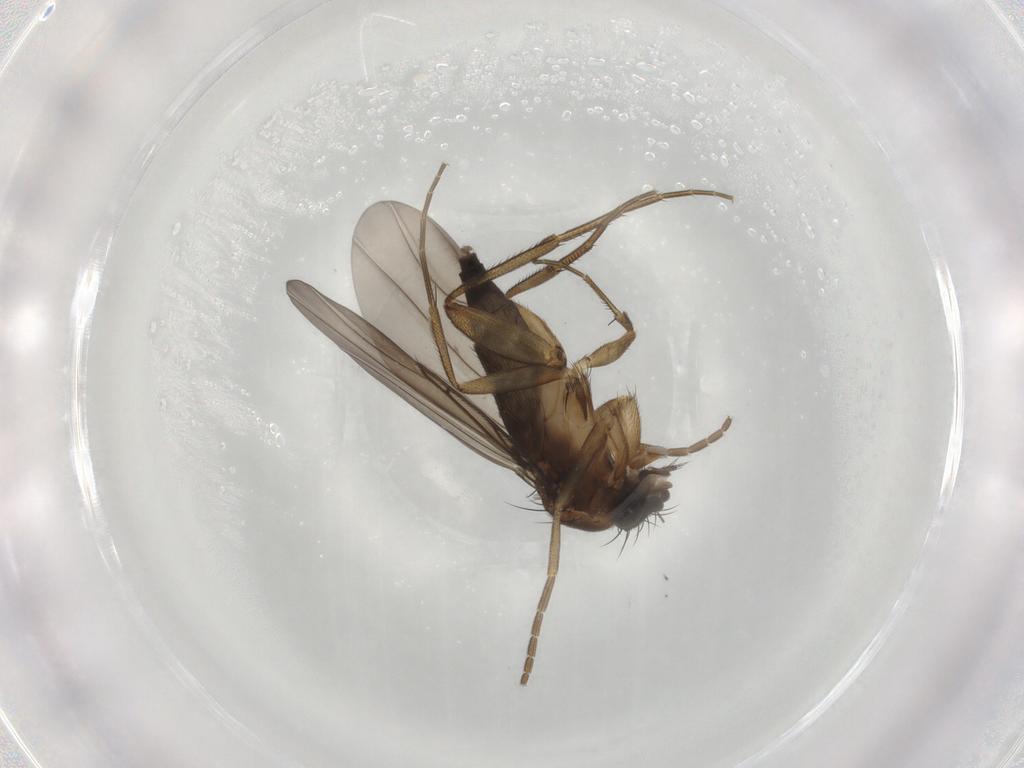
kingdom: Animalia
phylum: Arthropoda
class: Insecta
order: Diptera
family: Phoridae
